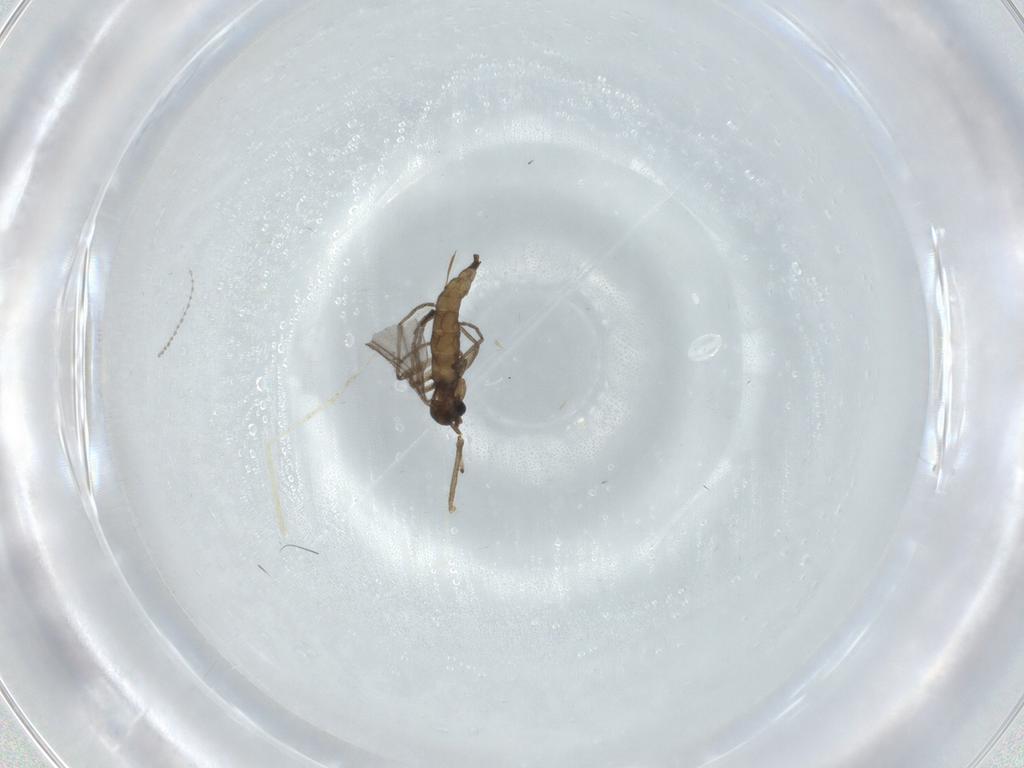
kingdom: Animalia
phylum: Arthropoda
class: Insecta
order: Diptera
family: Sciaridae
